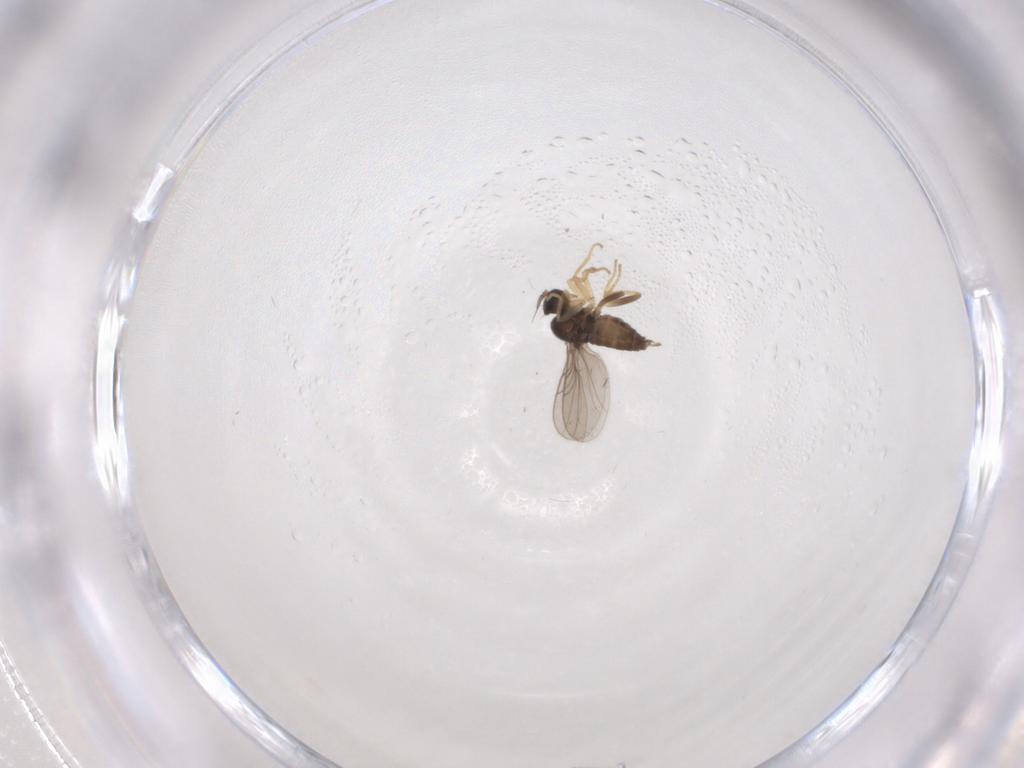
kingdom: Animalia
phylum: Arthropoda
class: Insecta
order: Diptera
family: Hybotidae
